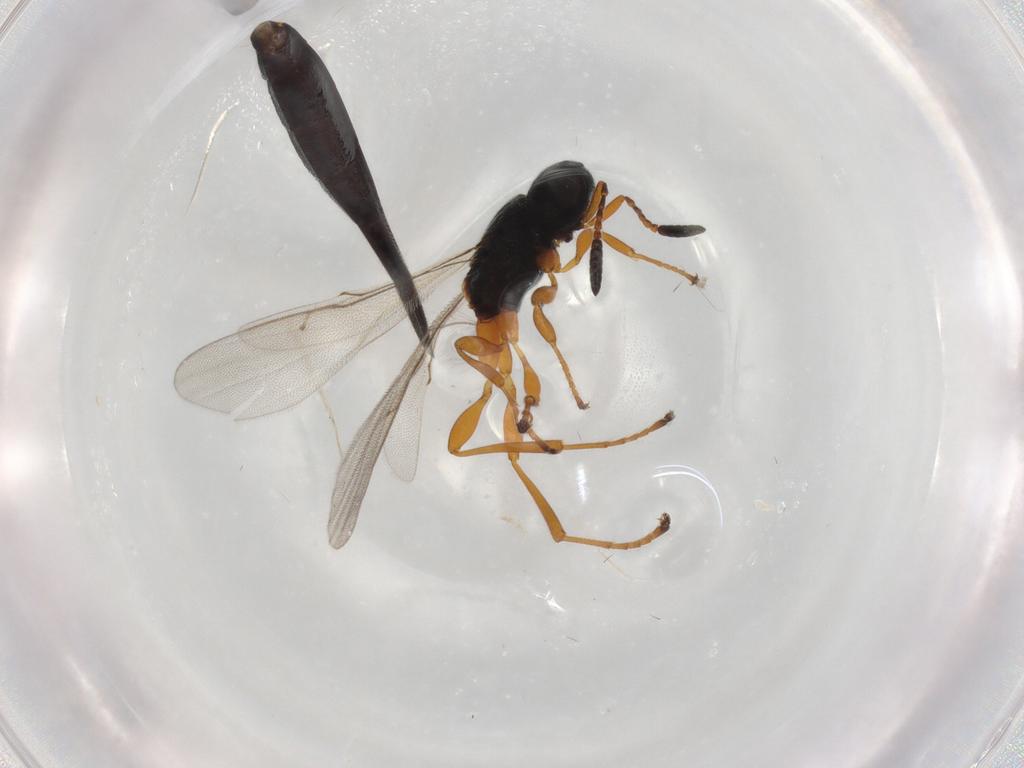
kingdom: Animalia
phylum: Arthropoda
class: Insecta
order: Hymenoptera
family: Scelionidae
